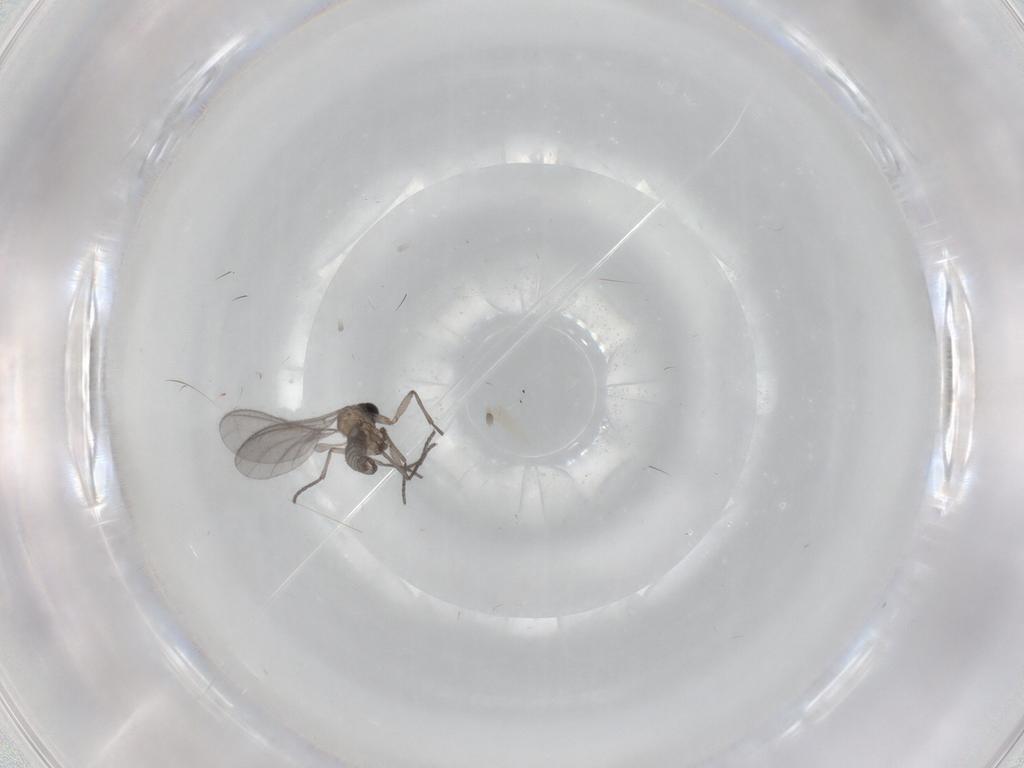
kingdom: Animalia
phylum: Arthropoda
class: Insecta
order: Diptera
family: Sciaridae
